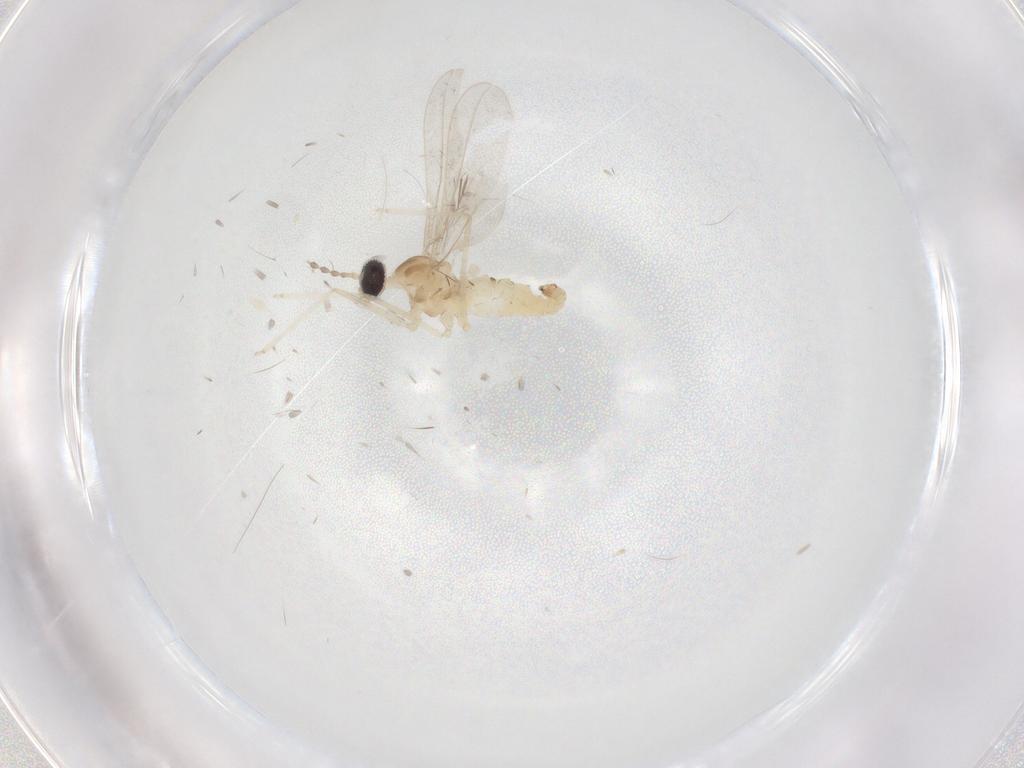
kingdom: Animalia
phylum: Arthropoda
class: Insecta
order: Diptera
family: Cecidomyiidae
